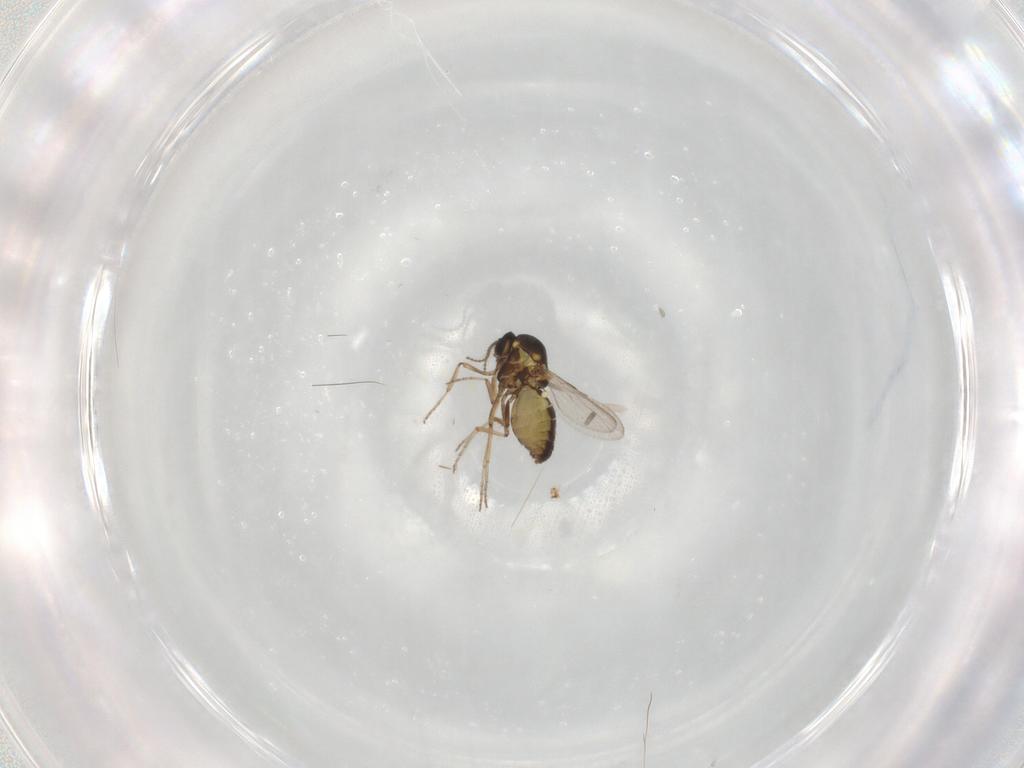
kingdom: Animalia
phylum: Arthropoda
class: Insecta
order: Diptera
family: Ceratopogonidae
